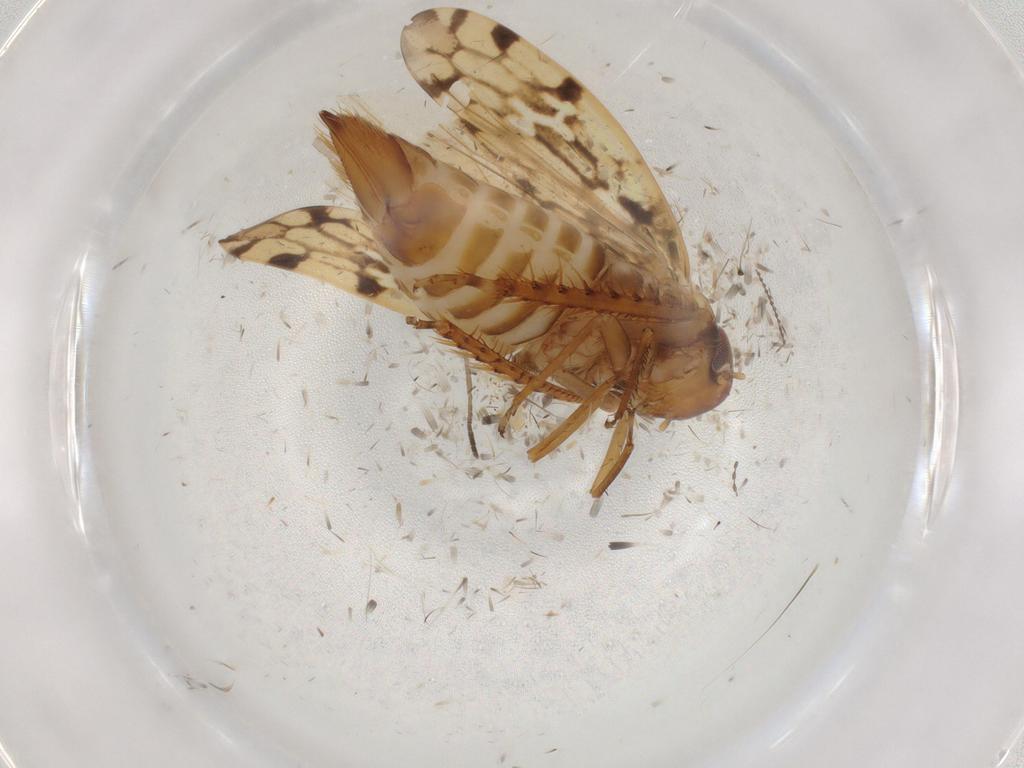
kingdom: Animalia
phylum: Arthropoda
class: Insecta
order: Hemiptera
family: Cicadellidae
